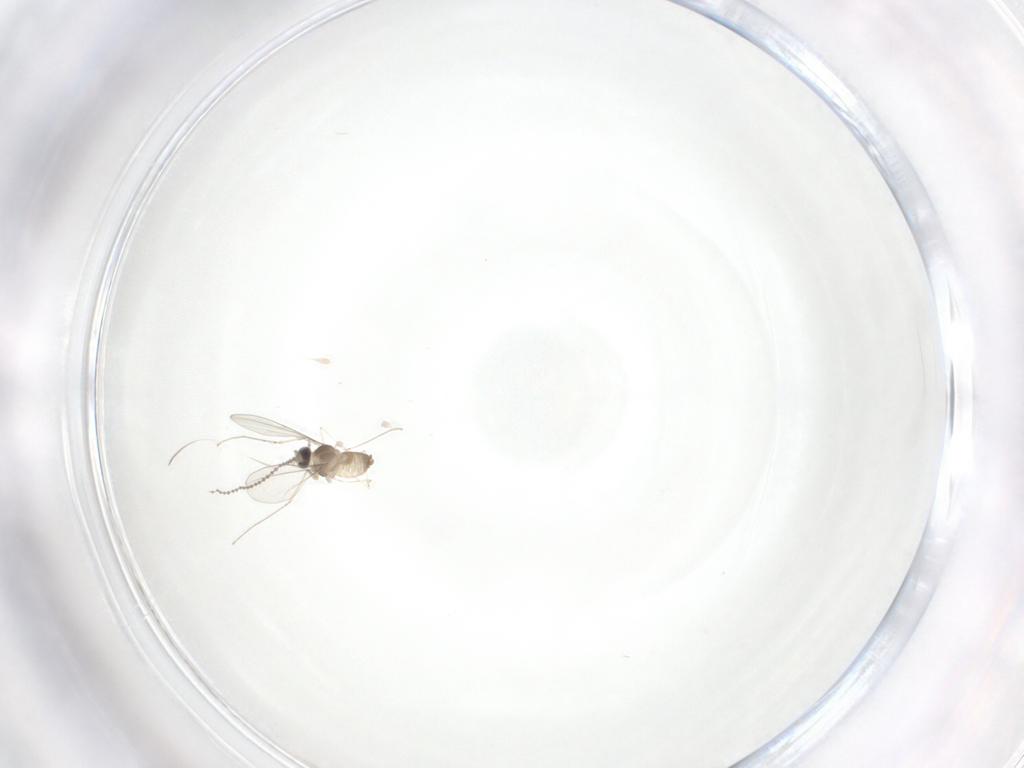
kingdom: Animalia
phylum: Arthropoda
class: Insecta
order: Diptera
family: Cecidomyiidae
